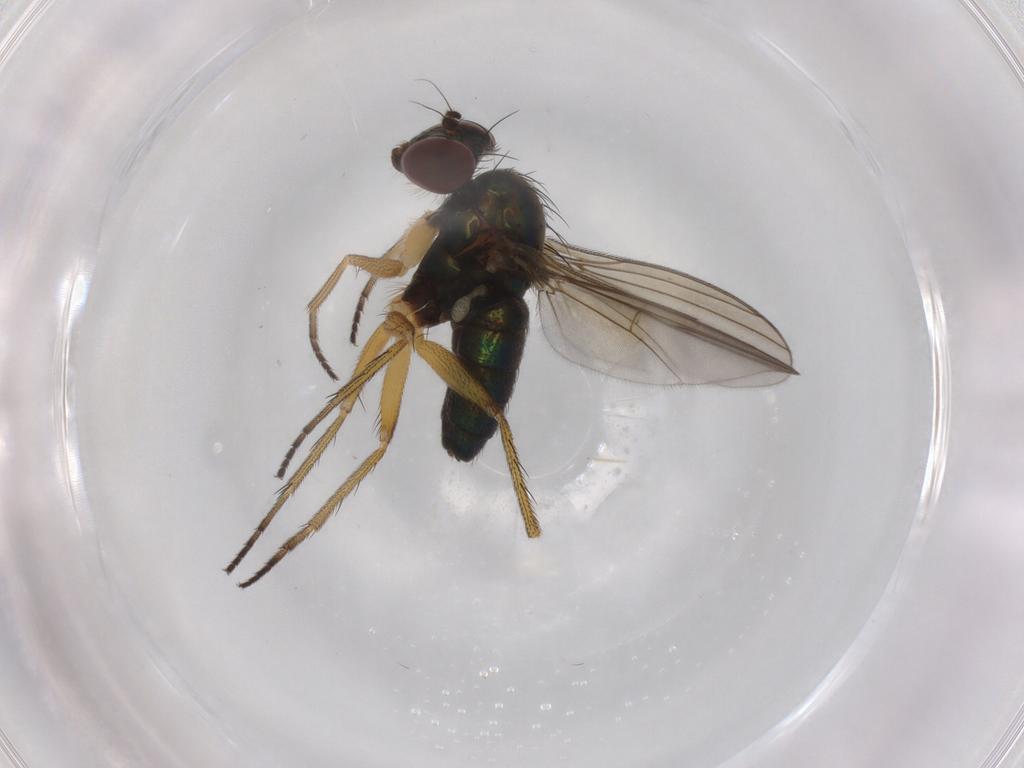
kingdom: Animalia
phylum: Arthropoda
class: Insecta
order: Diptera
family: Dolichopodidae
